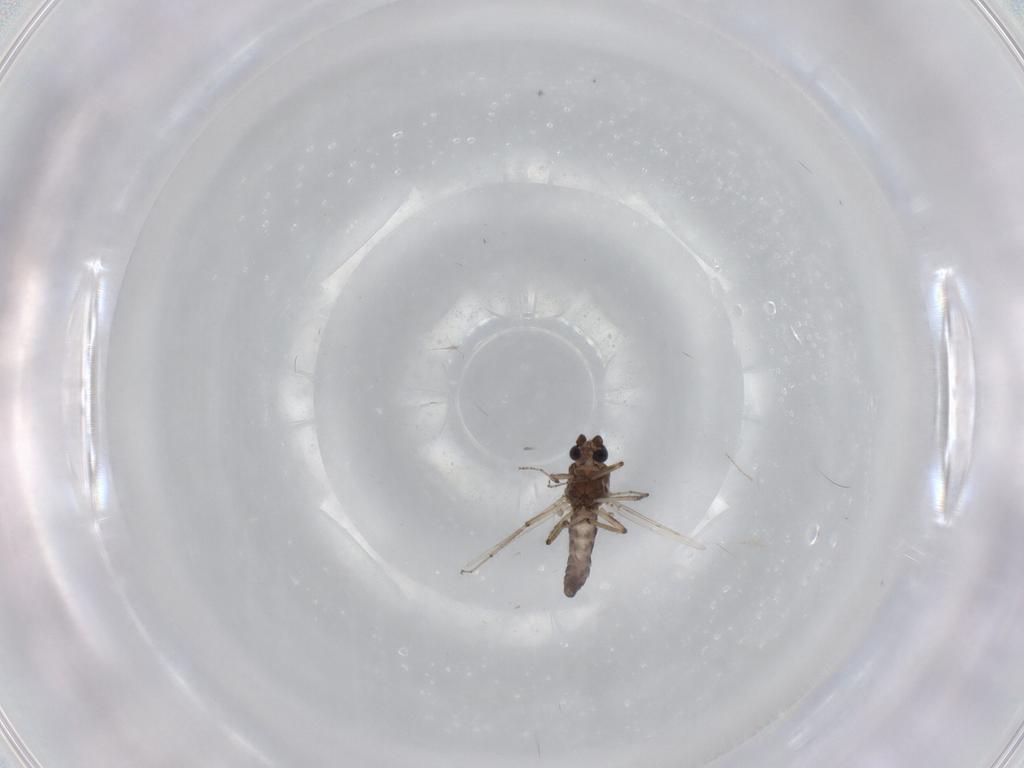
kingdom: Animalia
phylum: Arthropoda
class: Insecta
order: Diptera
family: Ceratopogonidae
